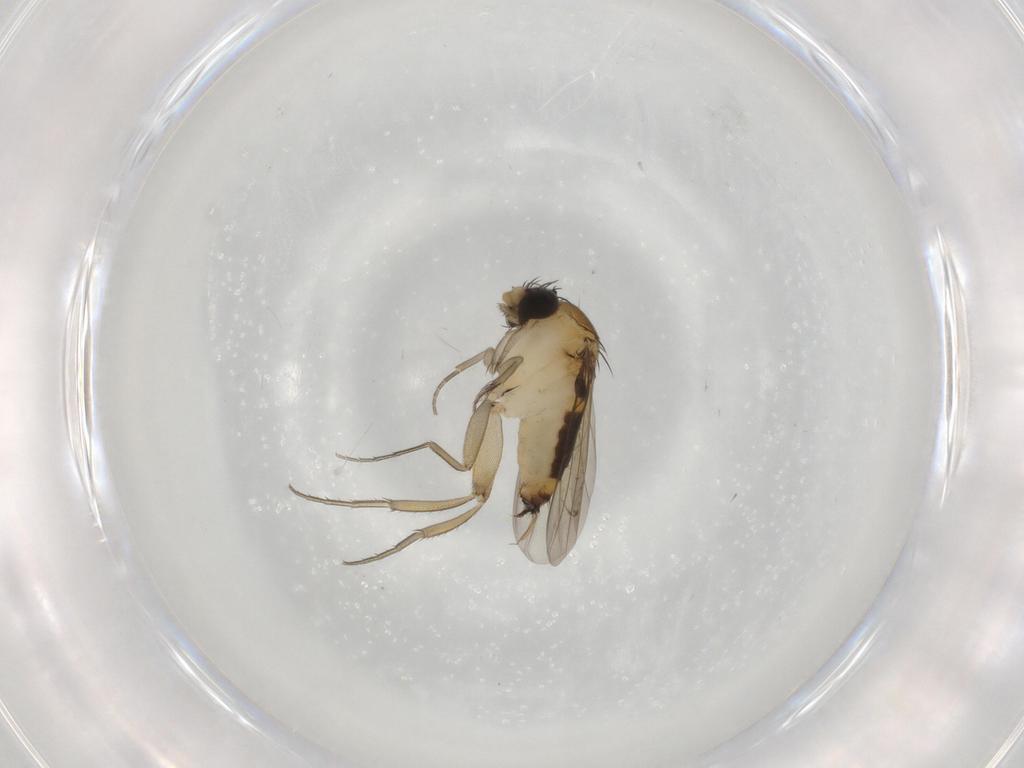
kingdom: Animalia
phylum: Arthropoda
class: Insecta
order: Diptera
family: Phoridae
